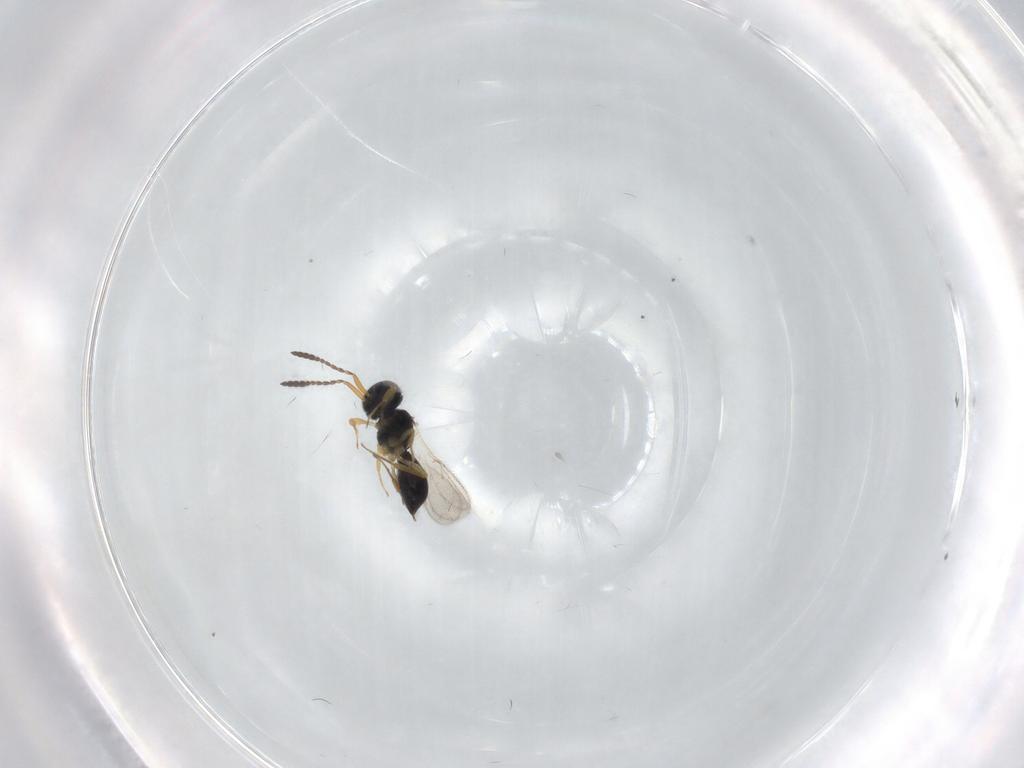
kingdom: Animalia
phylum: Arthropoda
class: Insecta
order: Hymenoptera
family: Scelionidae
